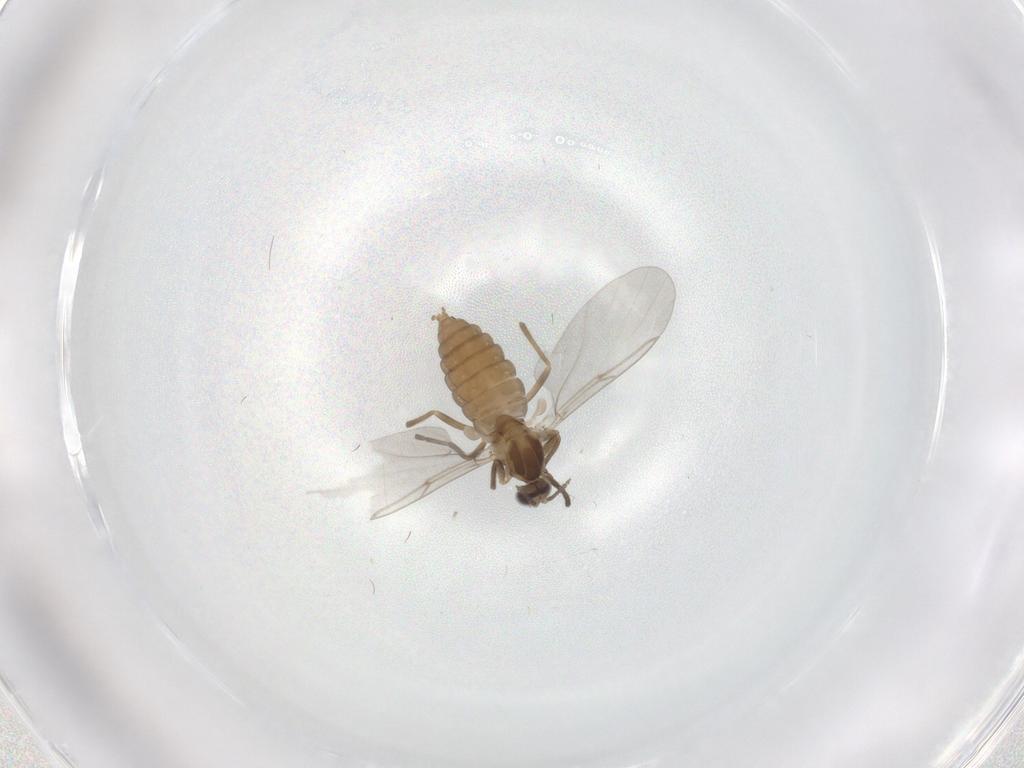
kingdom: Animalia
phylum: Arthropoda
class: Insecta
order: Diptera
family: Cecidomyiidae
